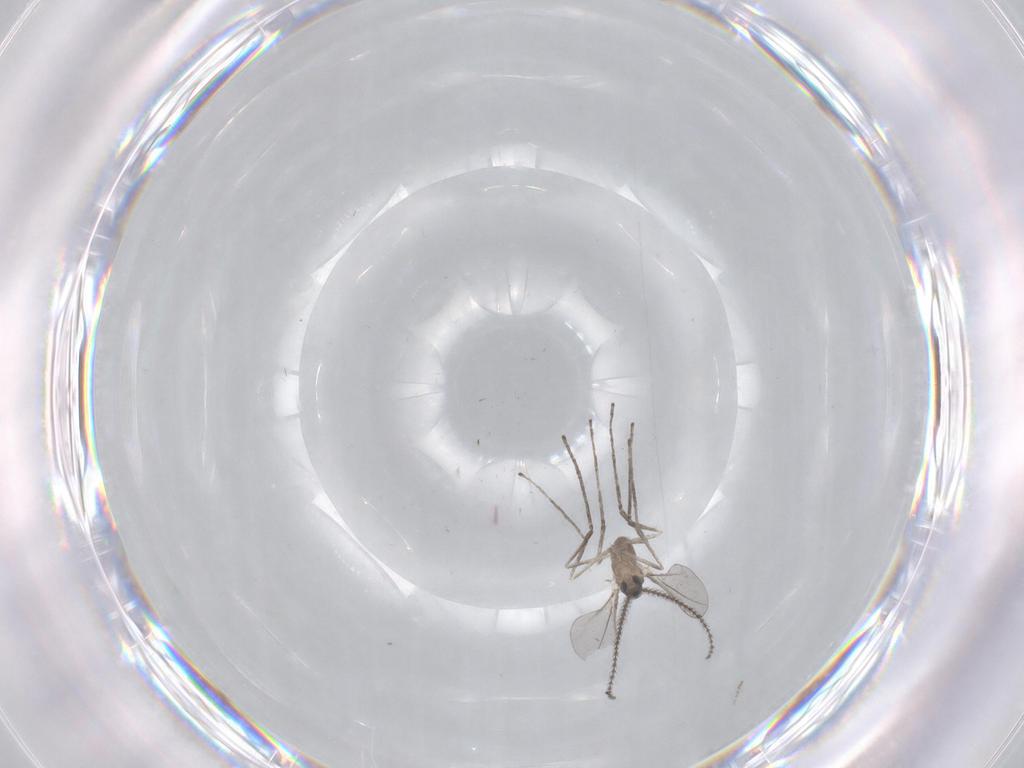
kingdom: Animalia
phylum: Arthropoda
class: Insecta
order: Diptera
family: Cecidomyiidae
